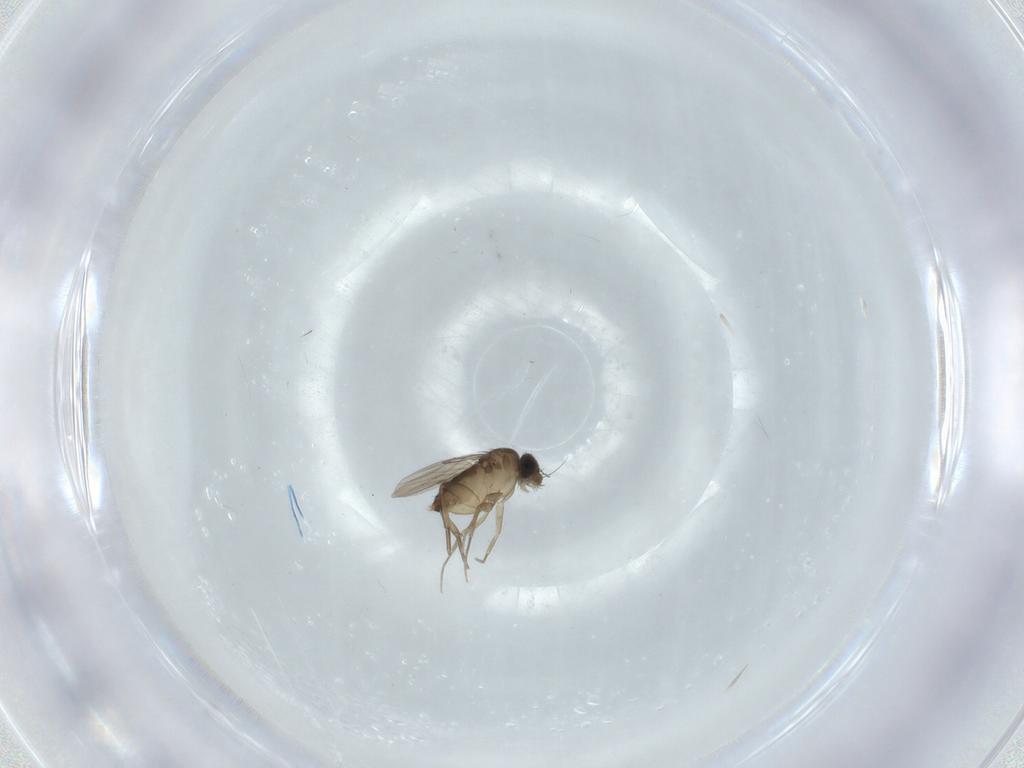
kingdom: Animalia
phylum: Arthropoda
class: Insecta
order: Diptera
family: Phoridae
